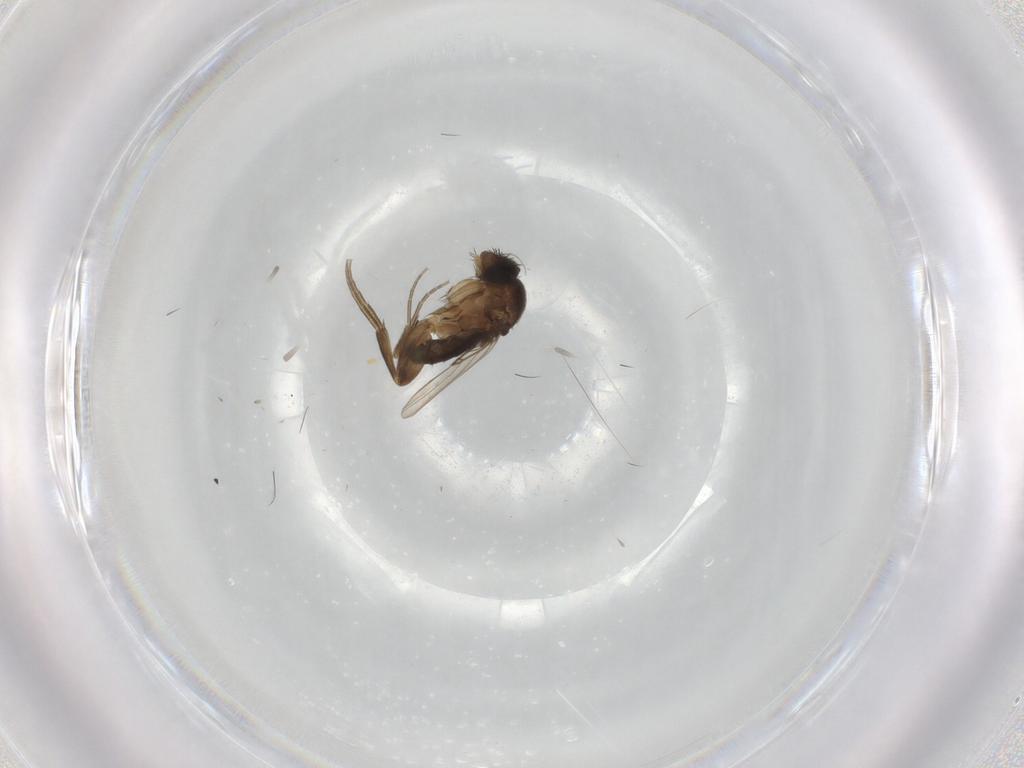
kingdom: Animalia
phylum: Arthropoda
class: Insecta
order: Diptera
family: Phoridae
